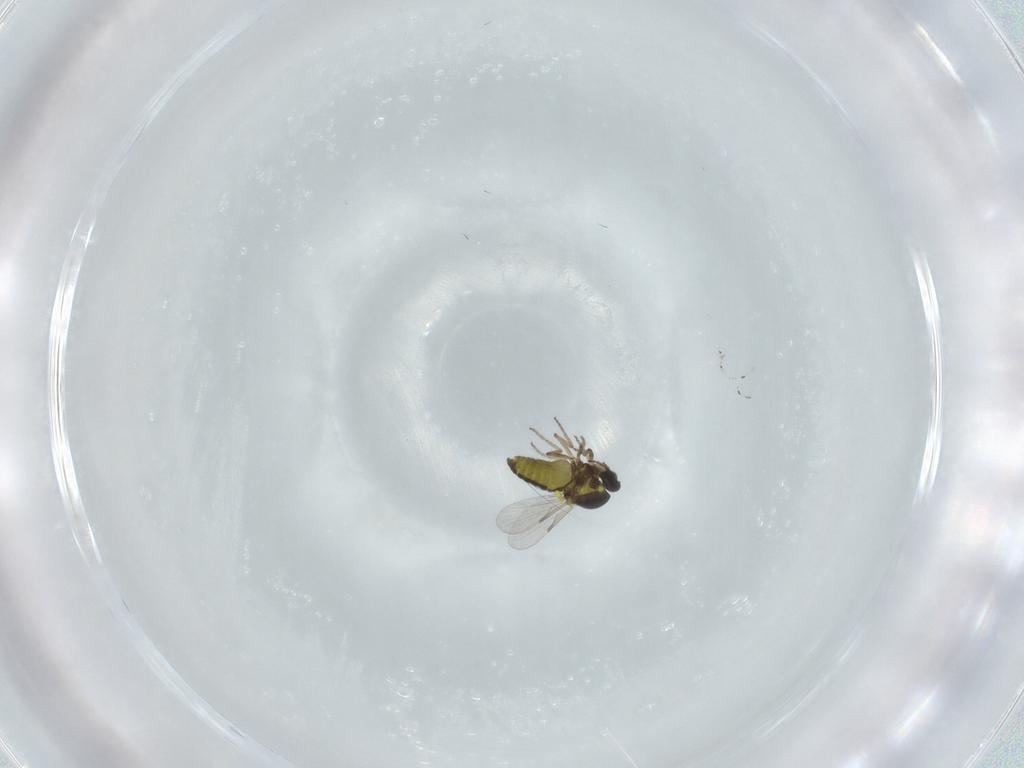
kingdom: Animalia
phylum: Arthropoda
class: Insecta
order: Diptera
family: Ceratopogonidae
